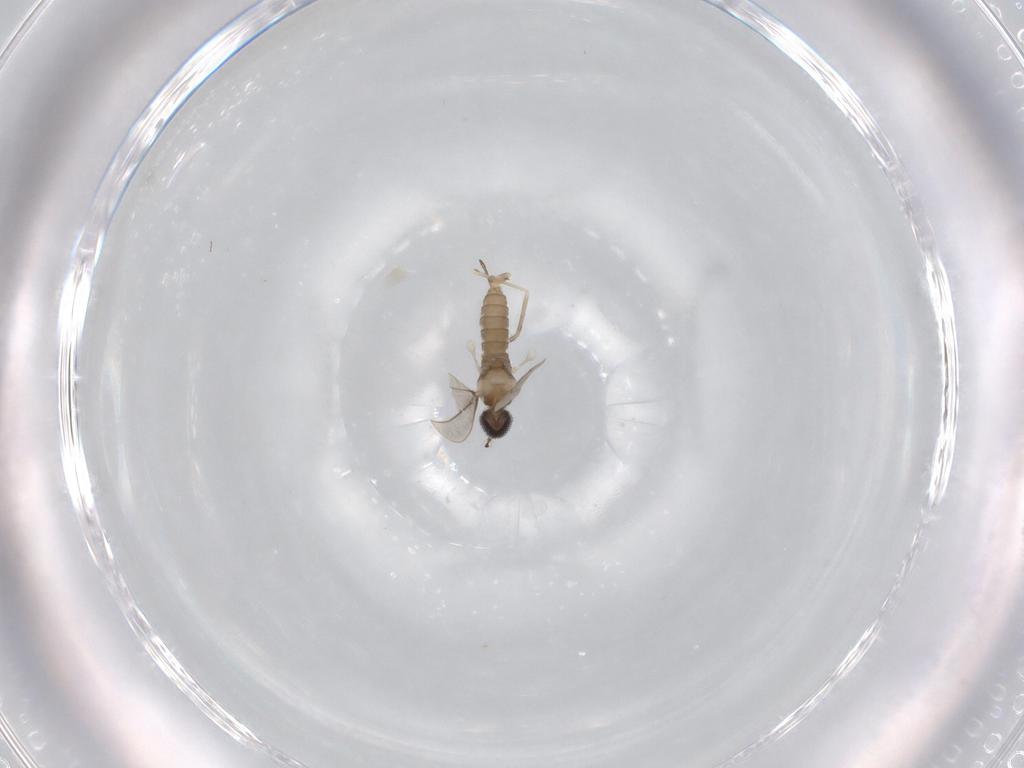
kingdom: Animalia
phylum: Arthropoda
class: Insecta
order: Diptera
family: Cecidomyiidae
